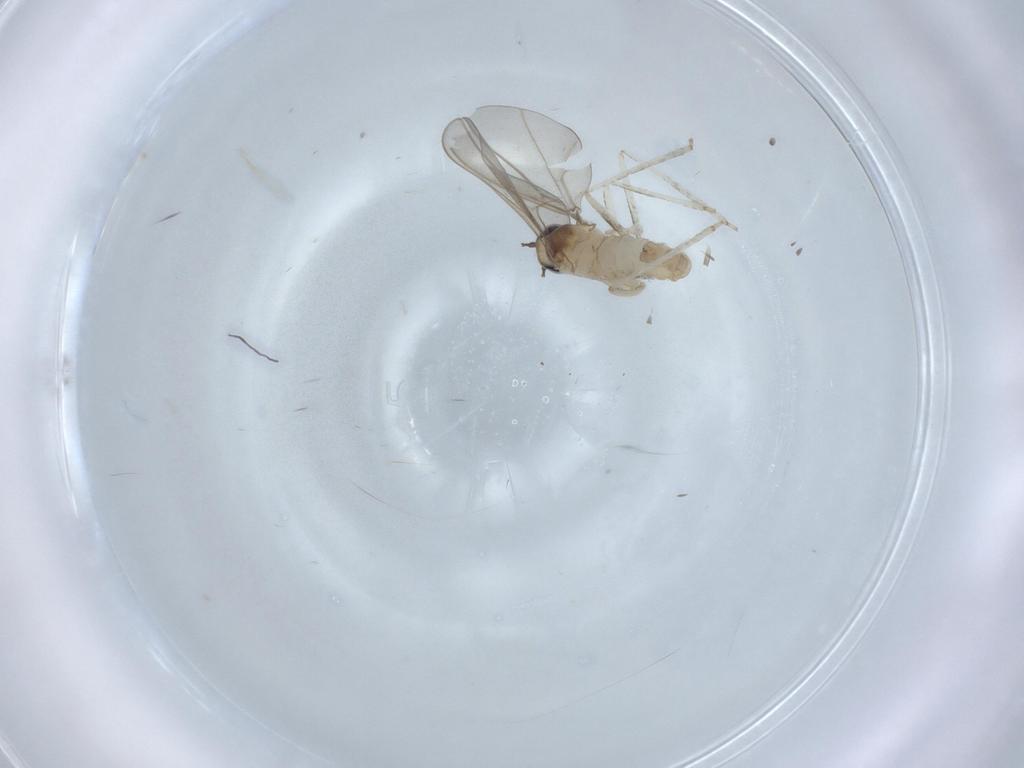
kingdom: Animalia
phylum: Arthropoda
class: Insecta
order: Diptera
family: Cecidomyiidae
